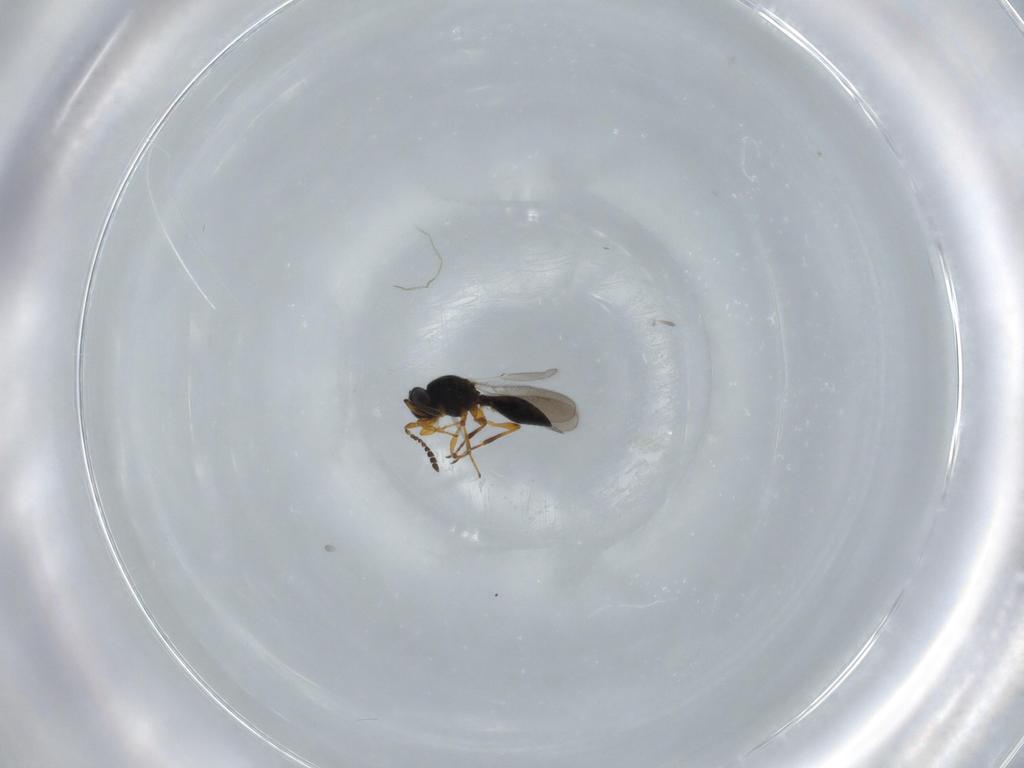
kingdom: Animalia
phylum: Arthropoda
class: Insecta
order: Hymenoptera
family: Platygastridae
